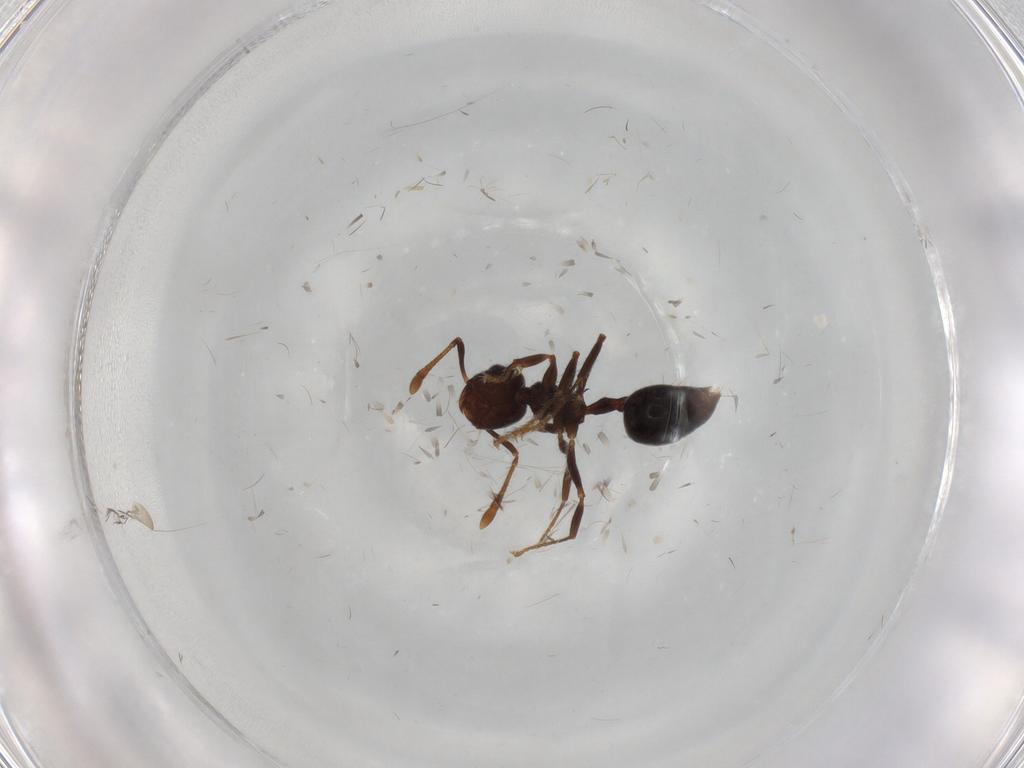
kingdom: Animalia
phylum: Arthropoda
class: Insecta
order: Hymenoptera
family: Formicidae
